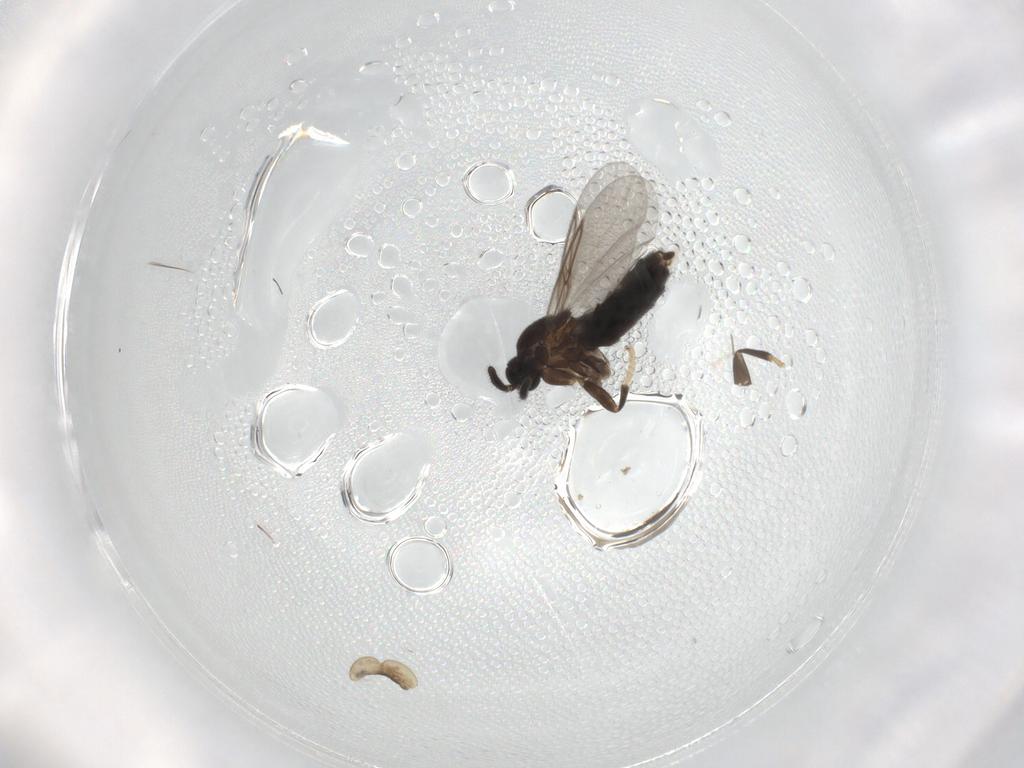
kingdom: Animalia
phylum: Arthropoda
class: Insecta
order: Diptera
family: Scatopsidae
